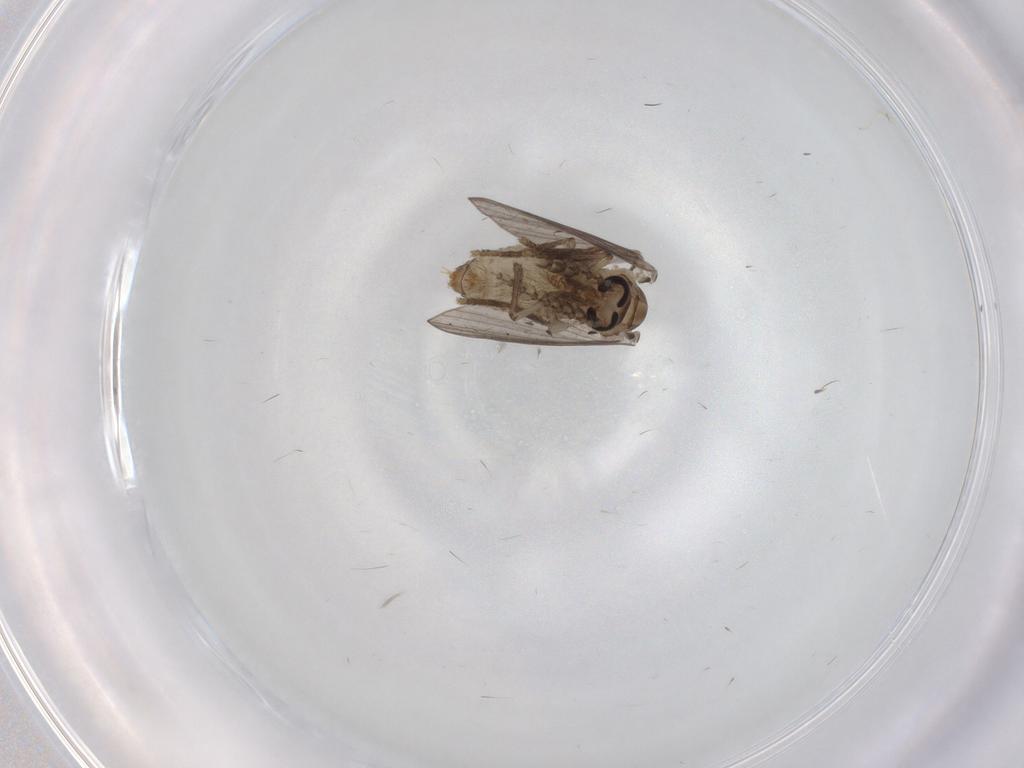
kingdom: Animalia
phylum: Arthropoda
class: Insecta
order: Diptera
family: Psychodidae
